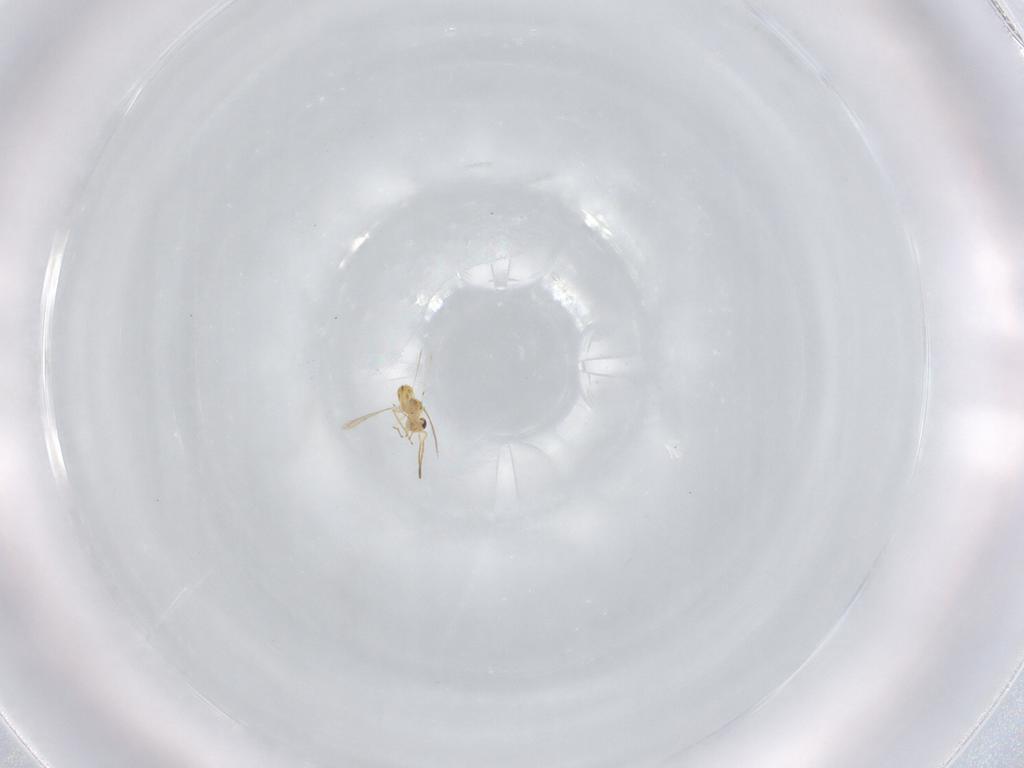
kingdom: Animalia
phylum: Arthropoda
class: Insecta
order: Hymenoptera
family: Mymaridae
